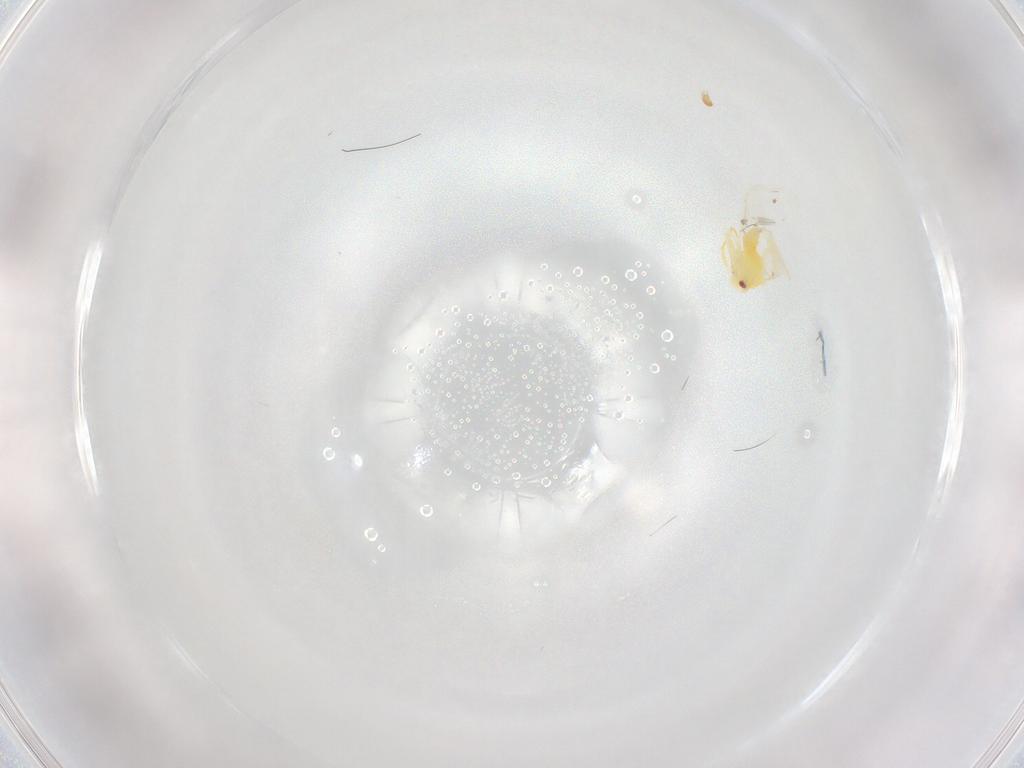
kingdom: Animalia
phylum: Arthropoda
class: Insecta
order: Hemiptera
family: Aleyrodidae
